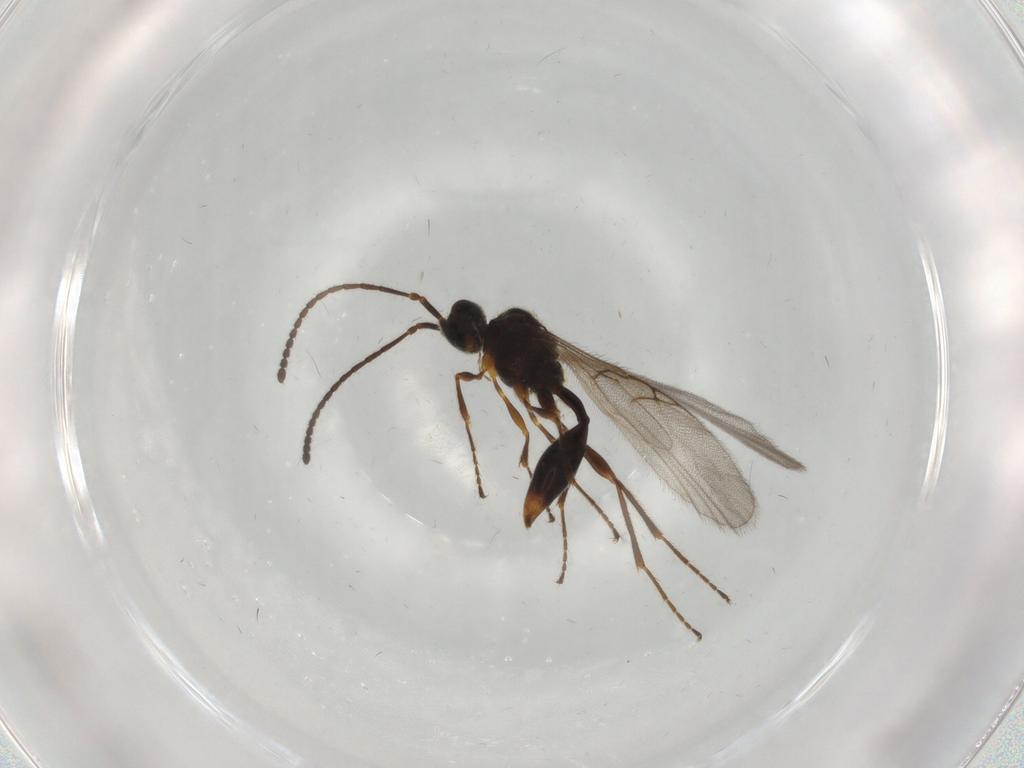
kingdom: Animalia
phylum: Arthropoda
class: Insecta
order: Hymenoptera
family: Diapriidae
